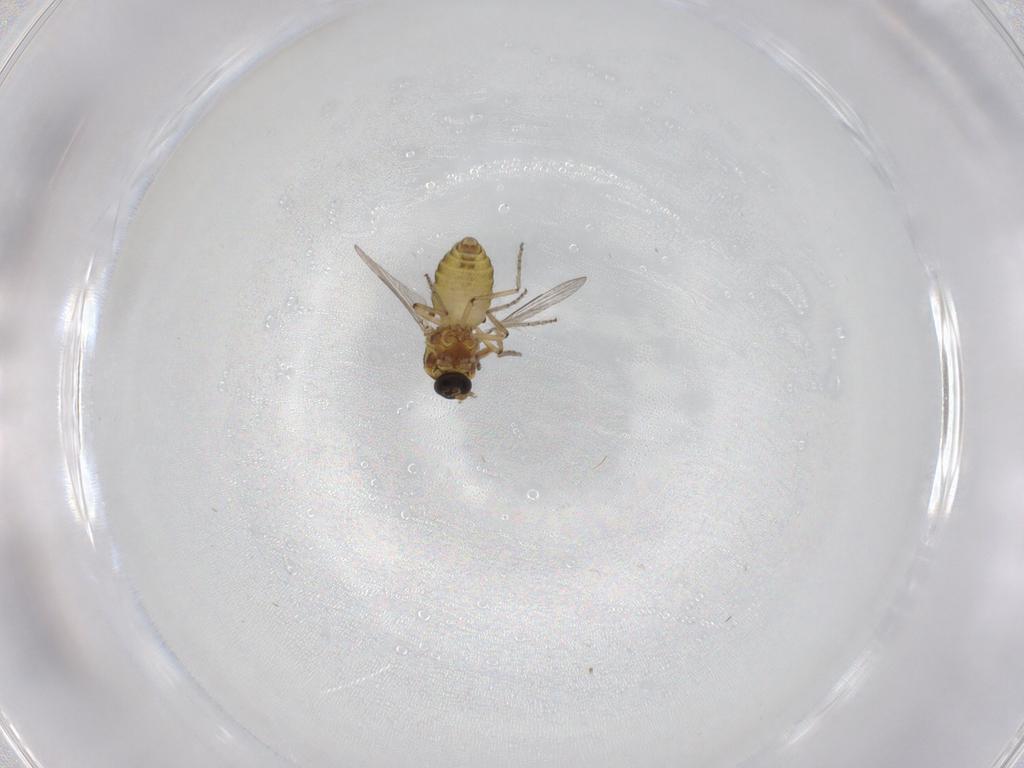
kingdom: Animalia
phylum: Arthropoda
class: Insecta
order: Diptera
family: Ceratopogonidae
